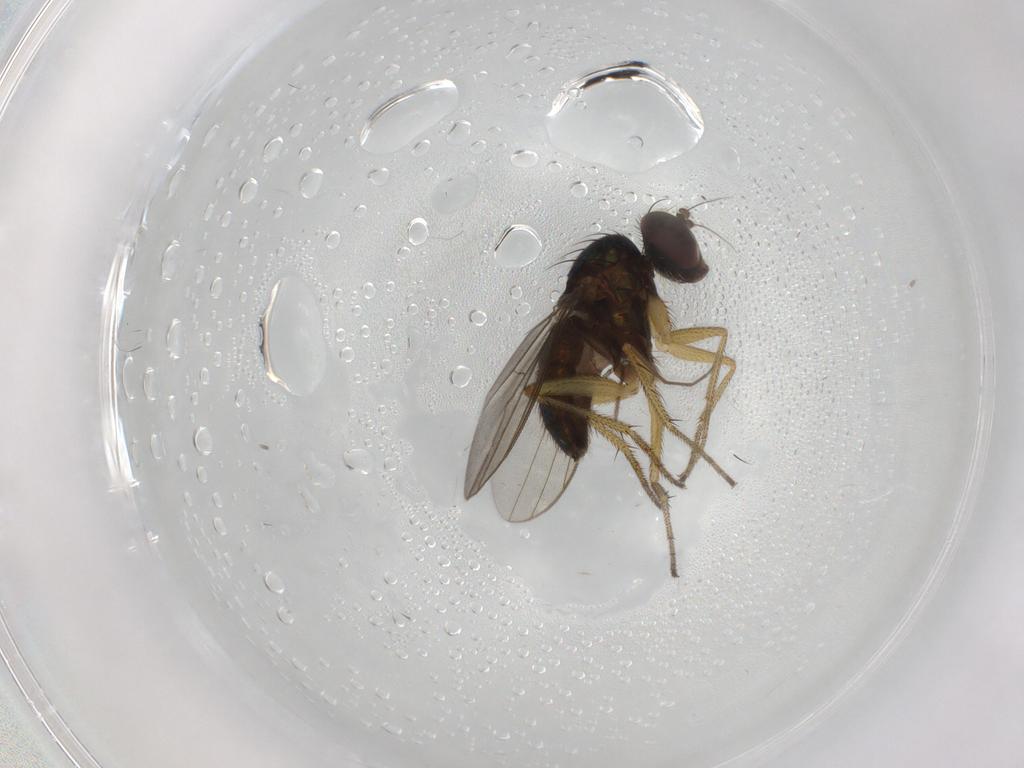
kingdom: Animalia
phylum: Arthropoda
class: Insecta
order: Diptera
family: Sciaridae
